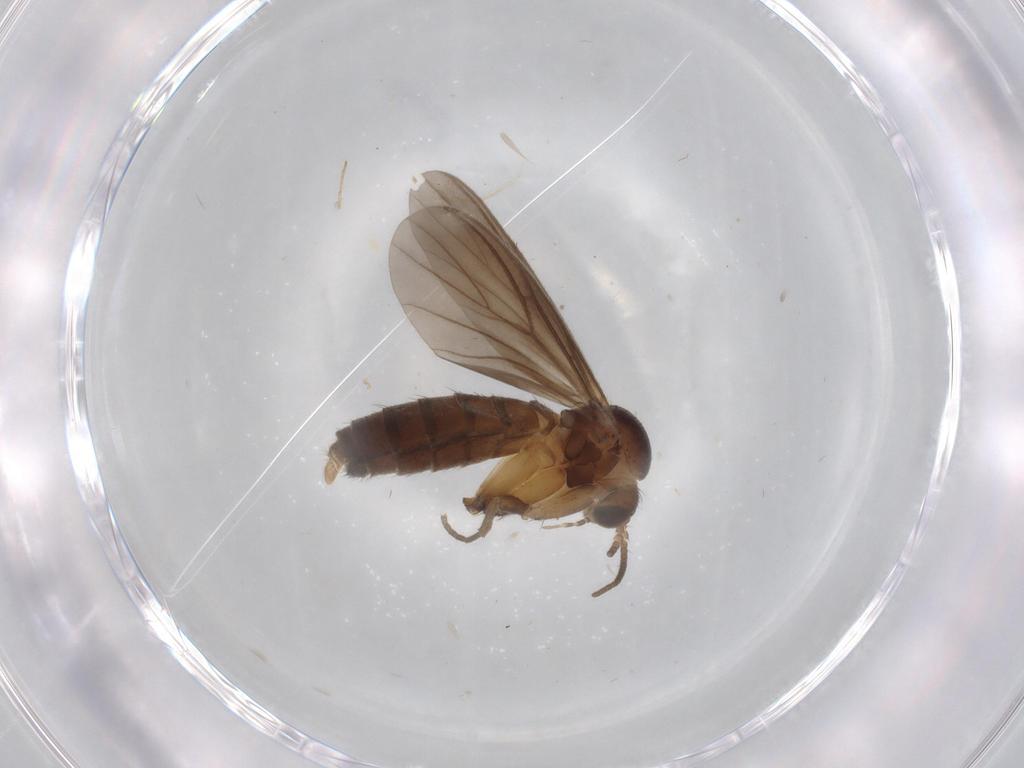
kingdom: Animalia
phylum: Arthropoda
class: Insecta
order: Diptera
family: Mycetophilidae
